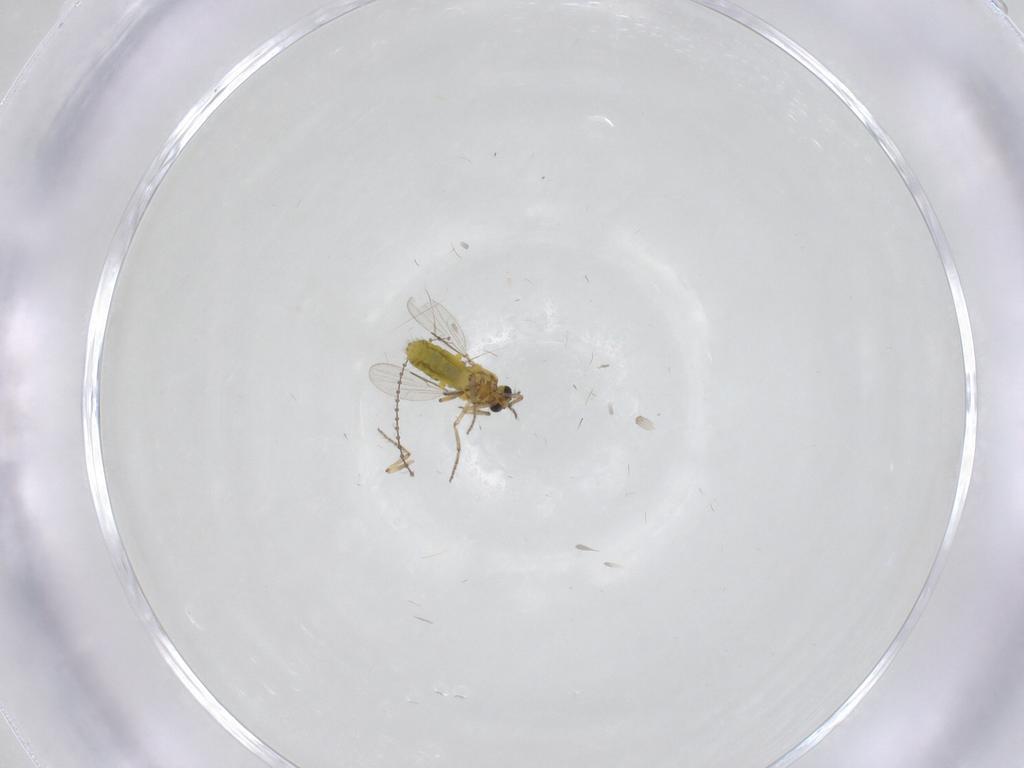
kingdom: Animalia
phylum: Arthropoda
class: Insecta
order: Diptera
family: Ceratopogonidae
